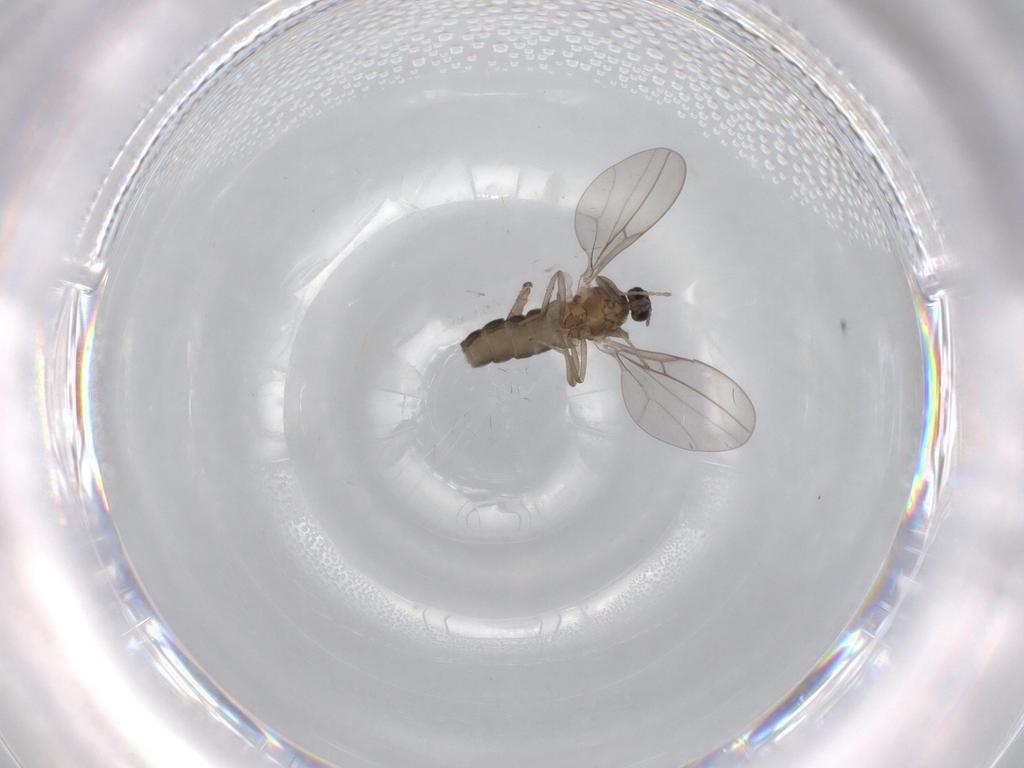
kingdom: Animalia
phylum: Arthropoda
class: Insecta
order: Diptera
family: Cecidomyiidae
